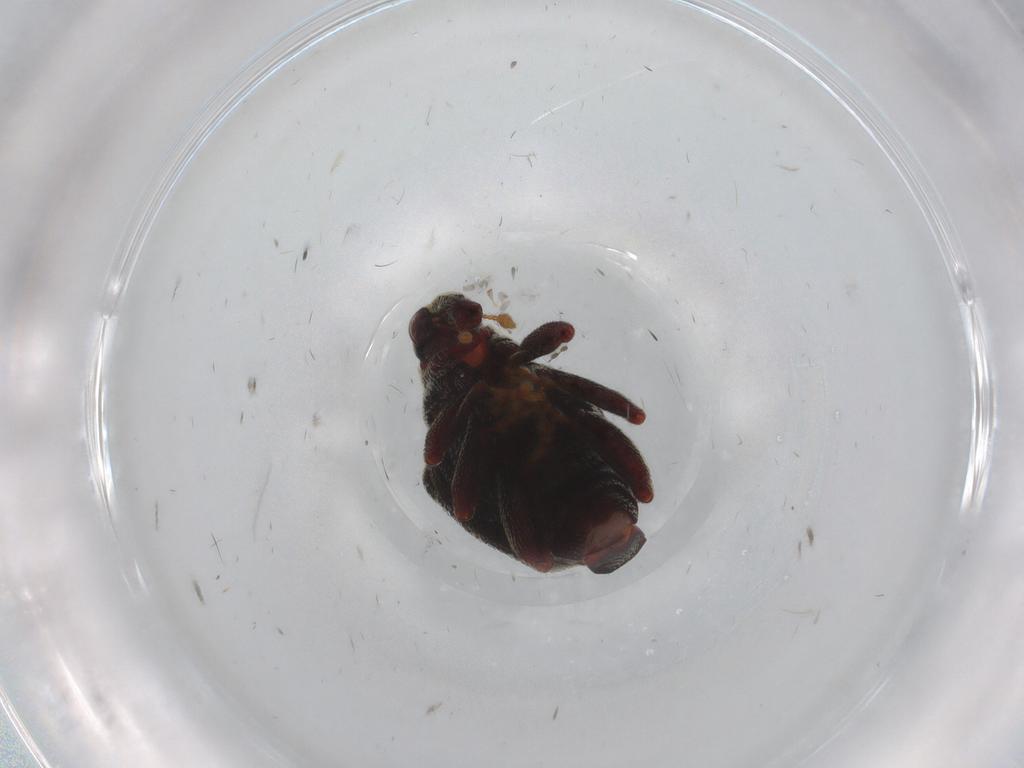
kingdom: Animalia
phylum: Arthropoda
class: Insecta
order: Coleoptera
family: Curculionidae
